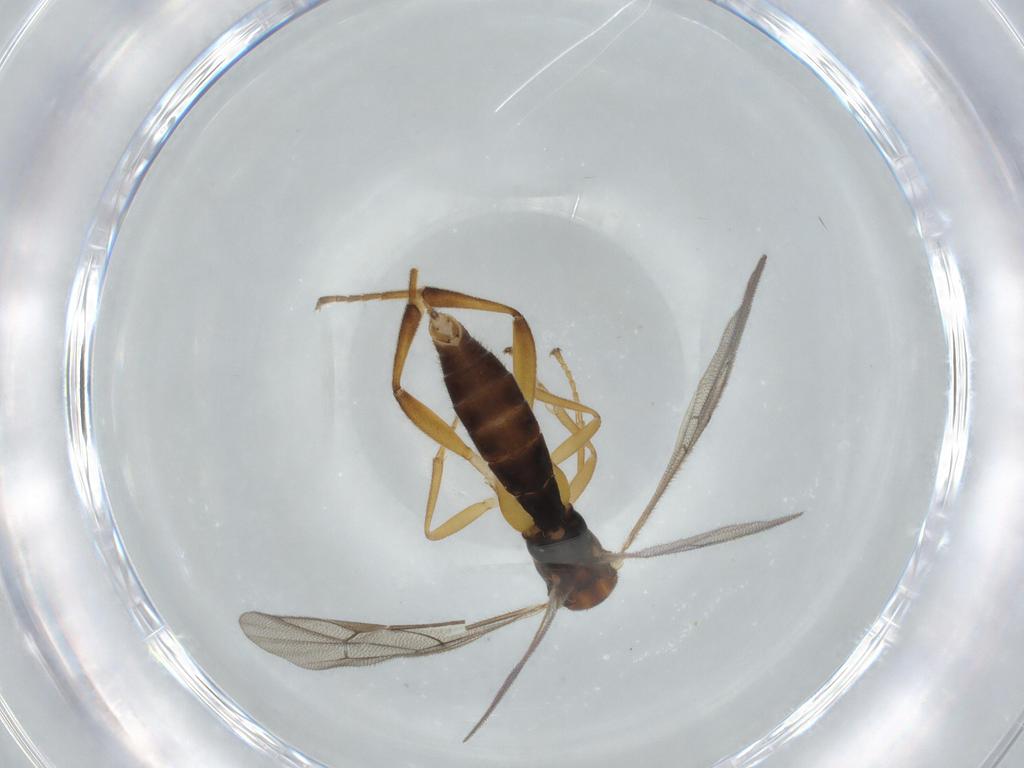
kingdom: Animalia
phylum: Arthropoda
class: Insecta
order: Hymenoptera
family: Ichneumonidae
